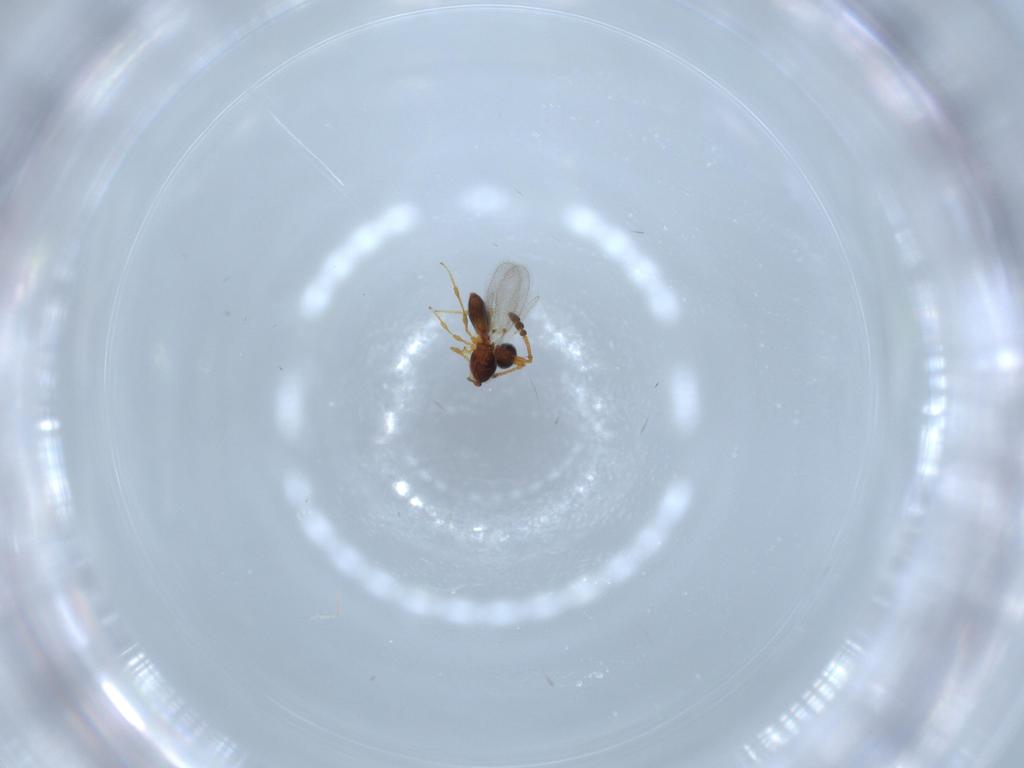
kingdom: Animalia
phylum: Arthropoda
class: Insecta
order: Hymenoptera
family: Diapriidae
